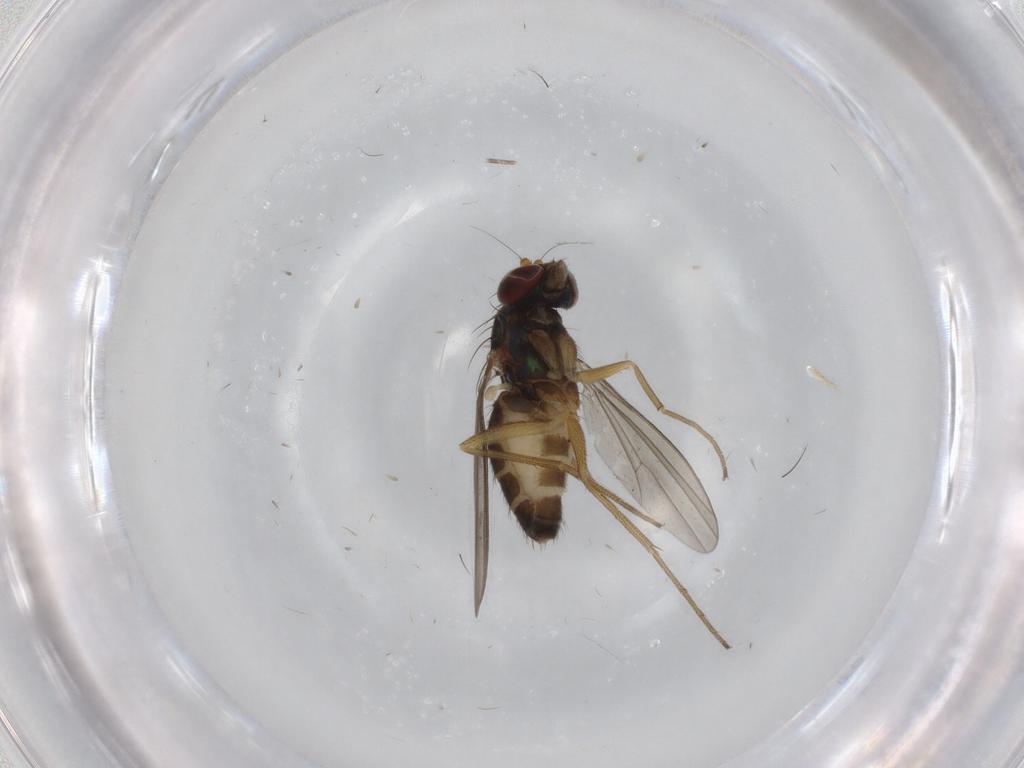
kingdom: Animalia
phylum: Arthropoda
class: Insecta
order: Diptera
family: Dolichopodidae
